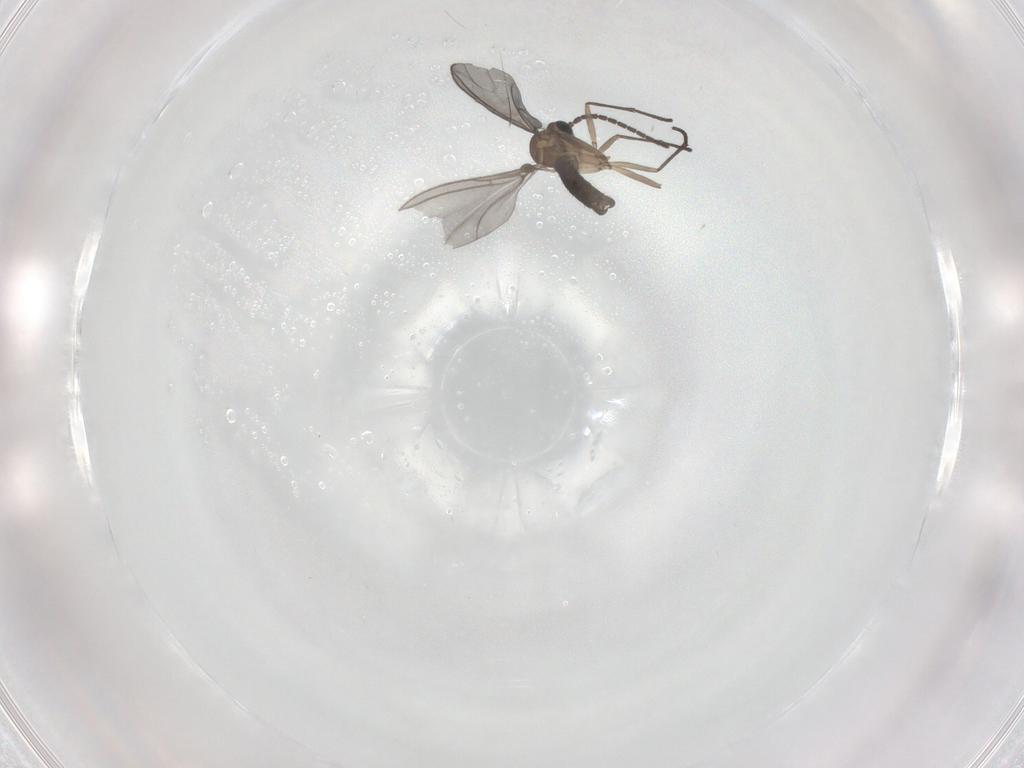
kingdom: Animalia
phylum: Arthropoda
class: Insecta
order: Diptera
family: Sciaridae
